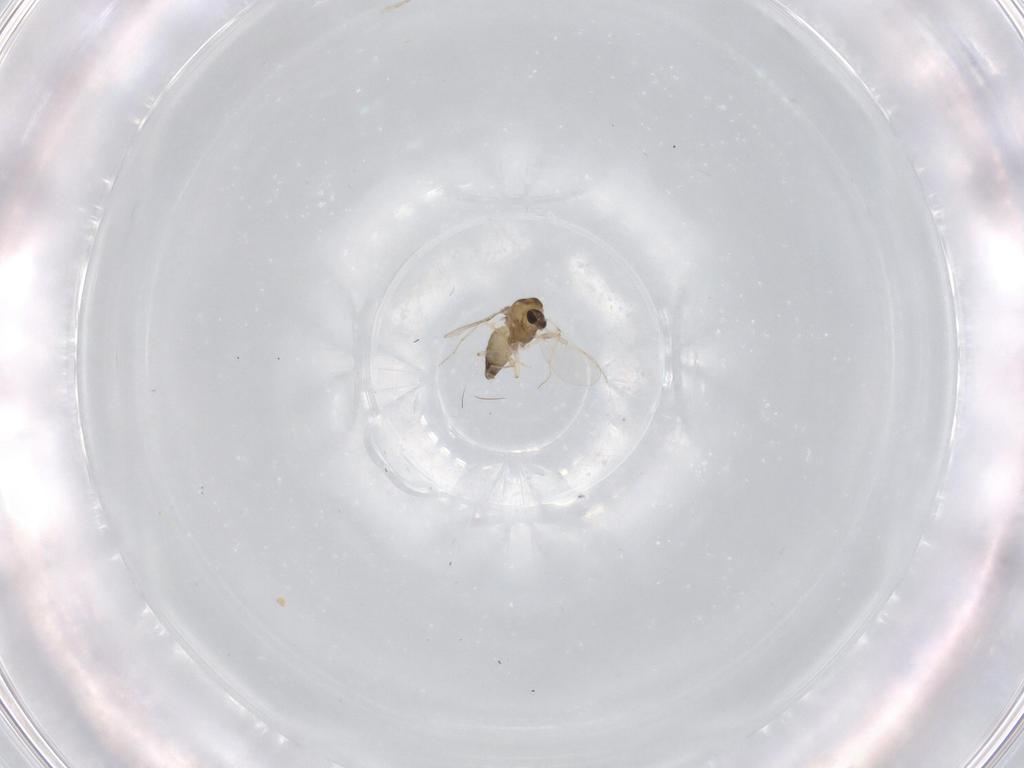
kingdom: Animalia
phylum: Arthropoda
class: Insecta
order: Diptera
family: Chironomidae
